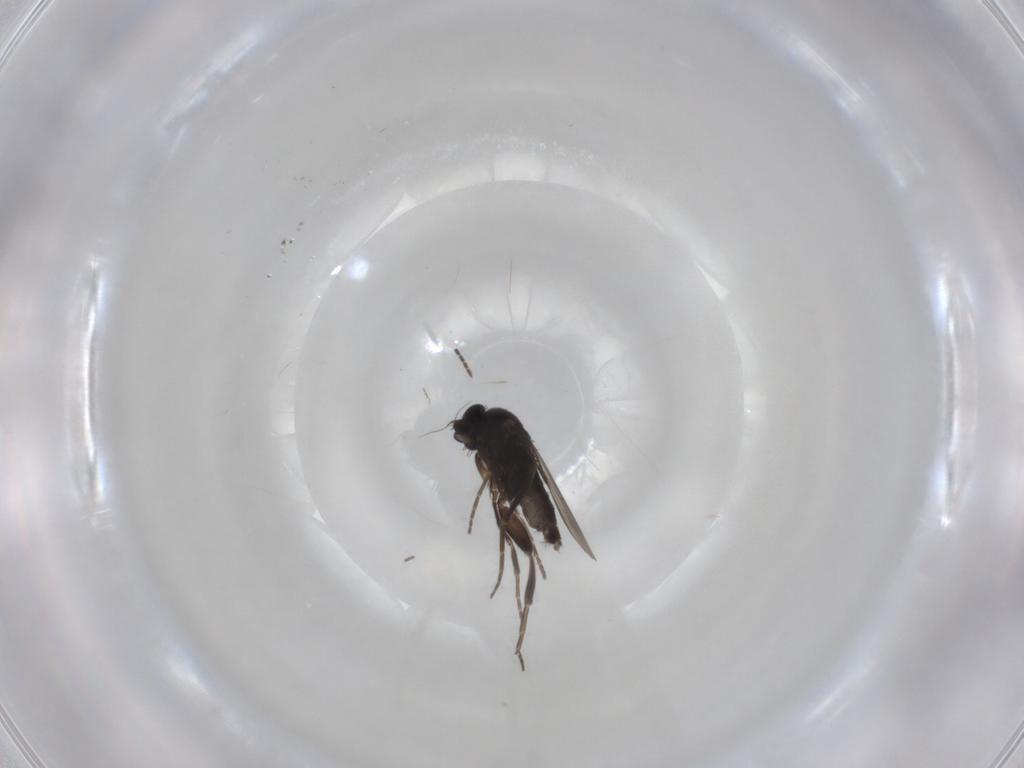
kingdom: Animalia
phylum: Arthropoda
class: Insecta
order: Diptera
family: Phoridae
